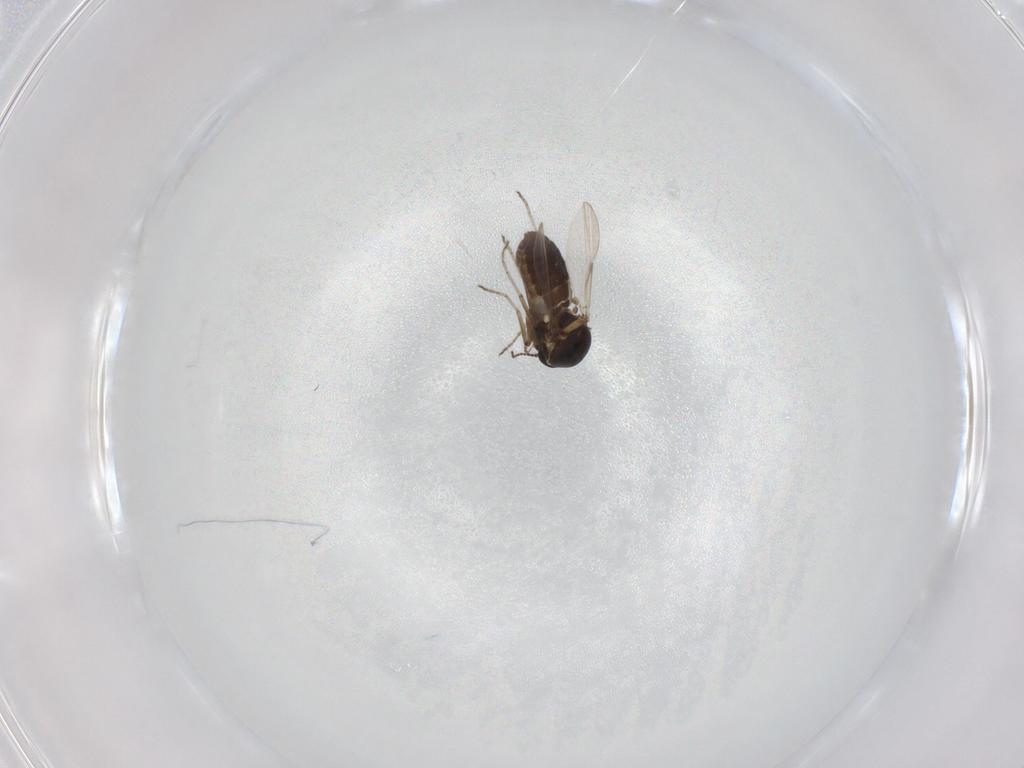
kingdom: Animalia
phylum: Arthropoda
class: Insecta
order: Diptera
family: Ceratopogonidae
